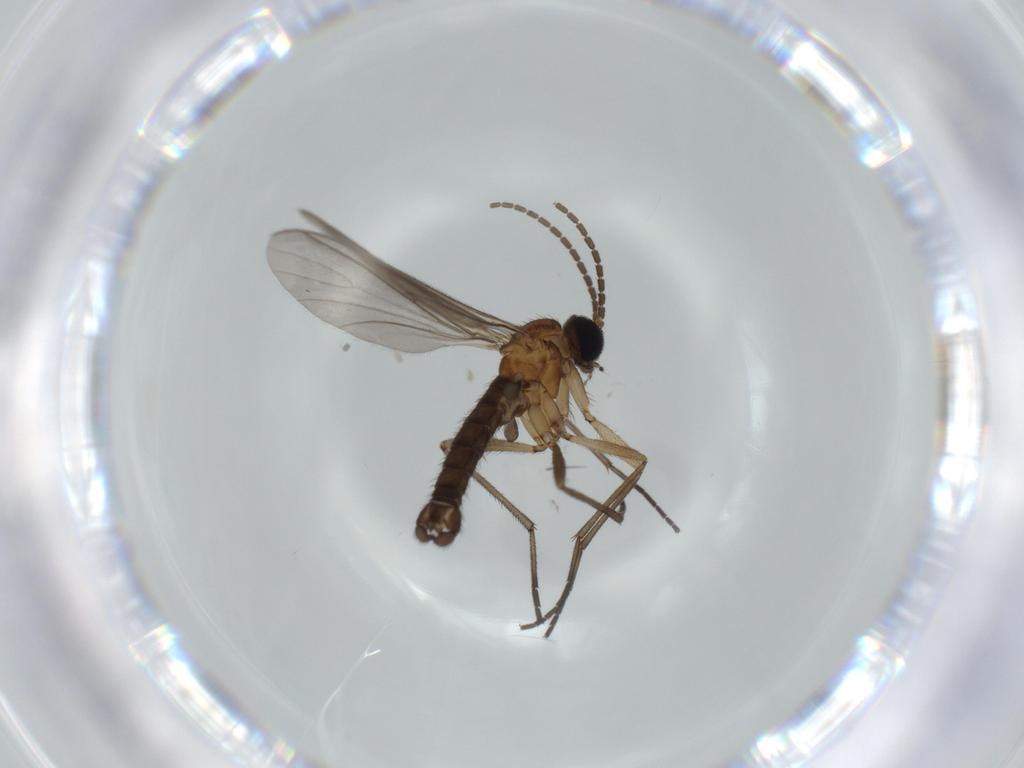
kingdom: Animalia
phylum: Arthropoda
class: Insecta
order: Diptera
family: Sciaridae
